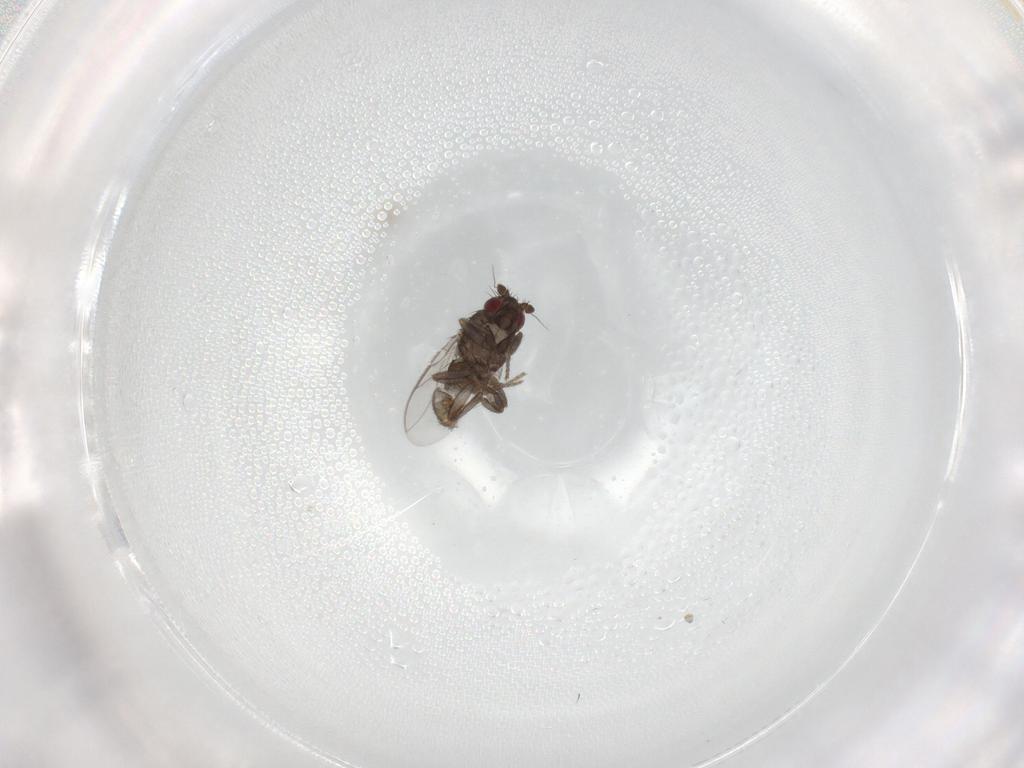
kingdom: Animalia
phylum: Arthropoda
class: Insecta
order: Diptera
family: Sphaeroceridae
